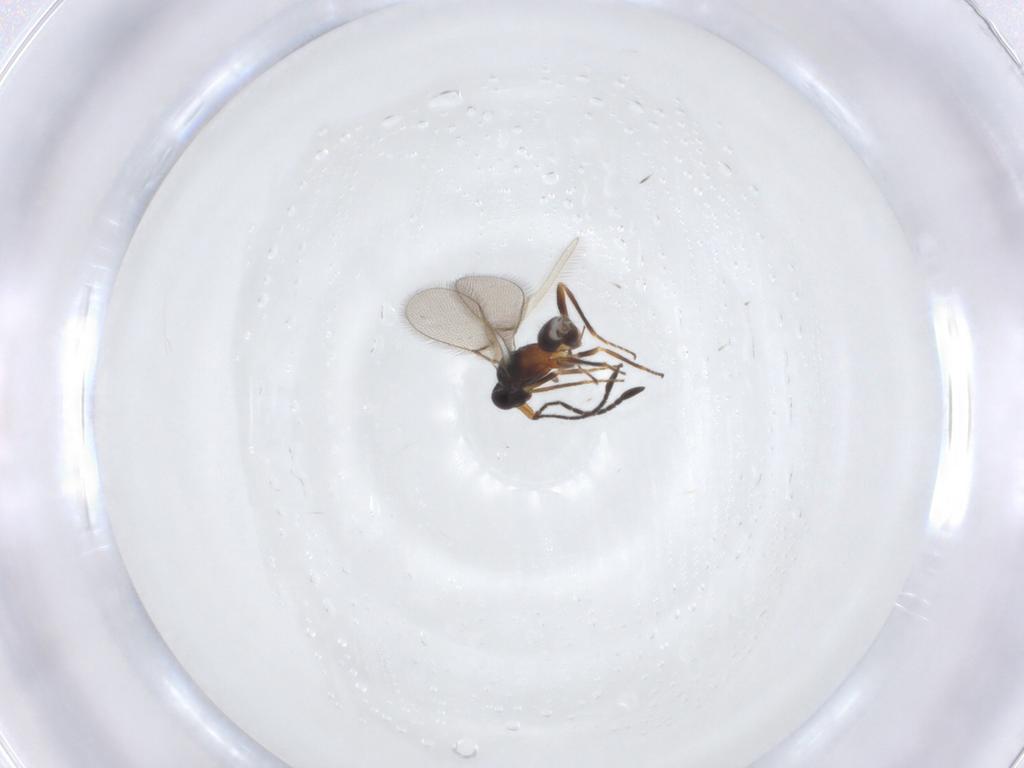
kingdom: Animalia
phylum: Arthropoda
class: Insecta
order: Hymenoptera
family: Mymaridae
